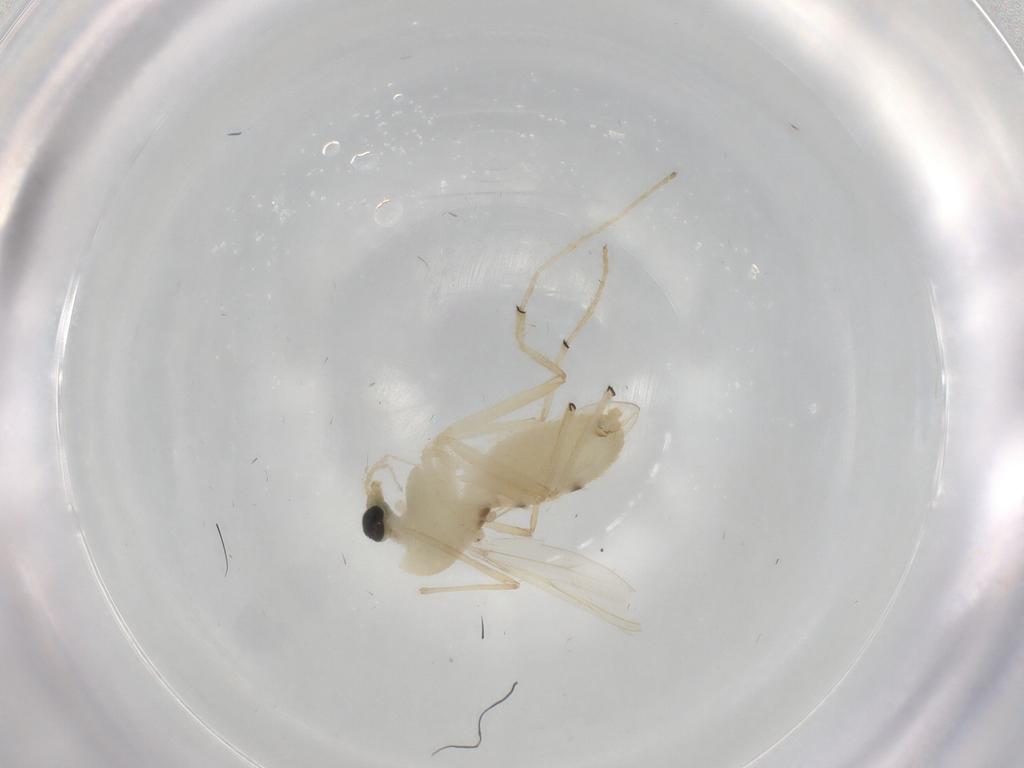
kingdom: Animalia
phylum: Arthropoda
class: Insecta
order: Diptera
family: Chironomidae
